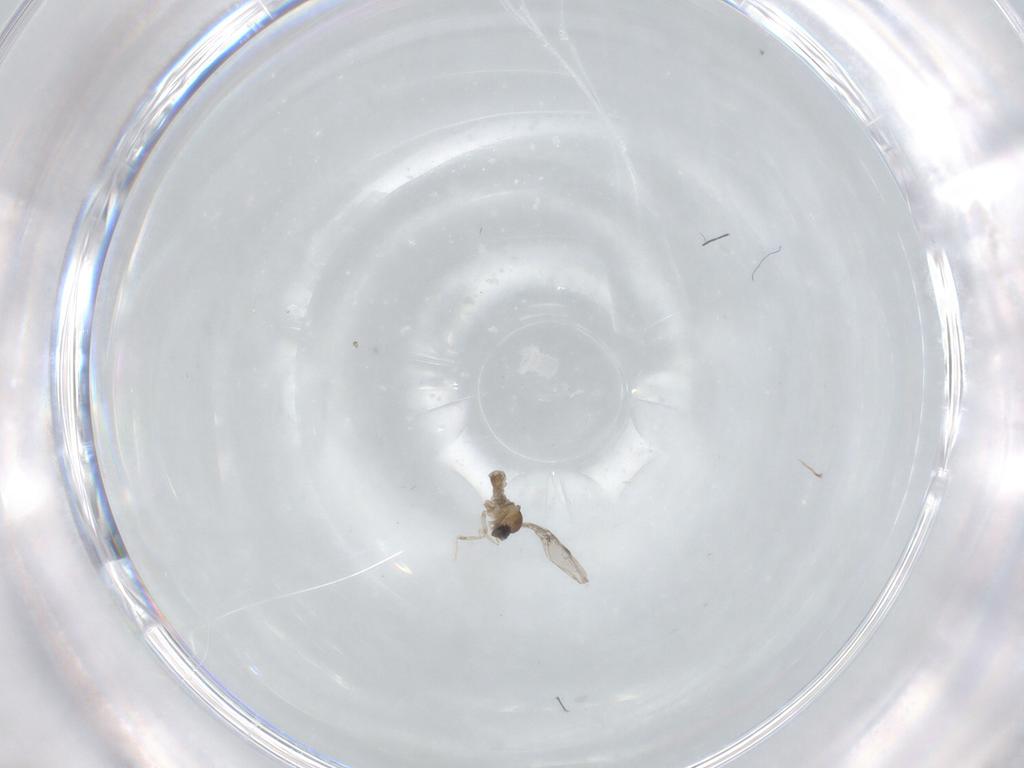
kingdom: Animalia
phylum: Arthropoda
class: Insecta
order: Diptera
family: Cecidomyiidae
